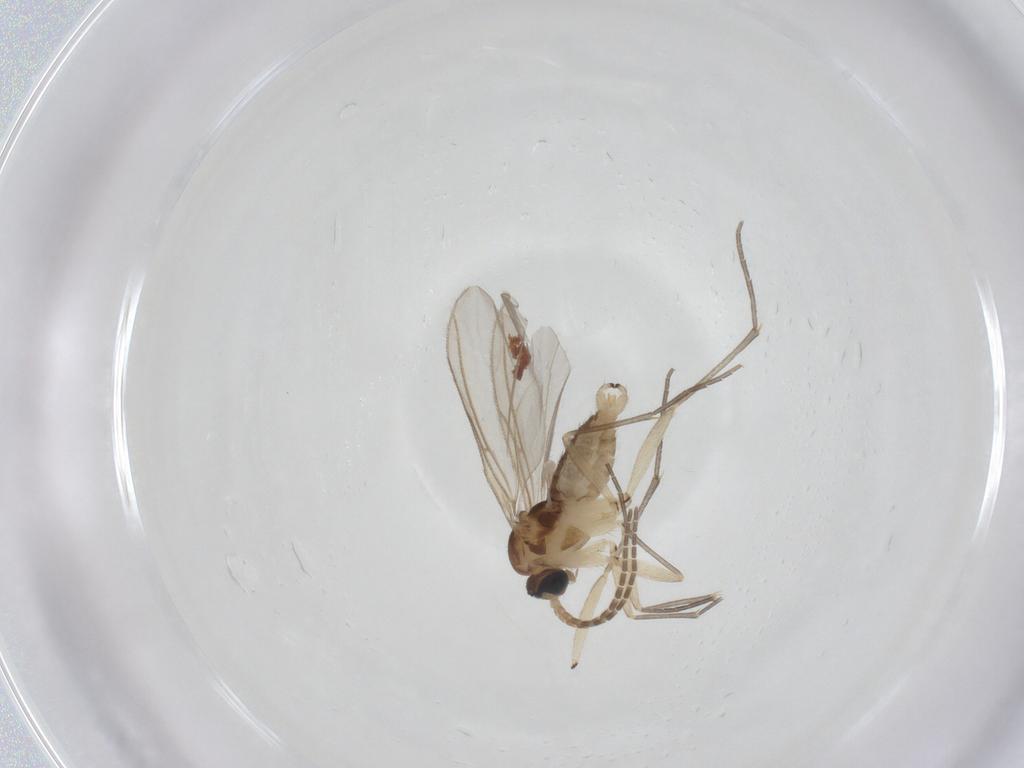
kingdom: Animalia
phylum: Arthropoda
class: Insecta
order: Diptera
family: Sciaridae
